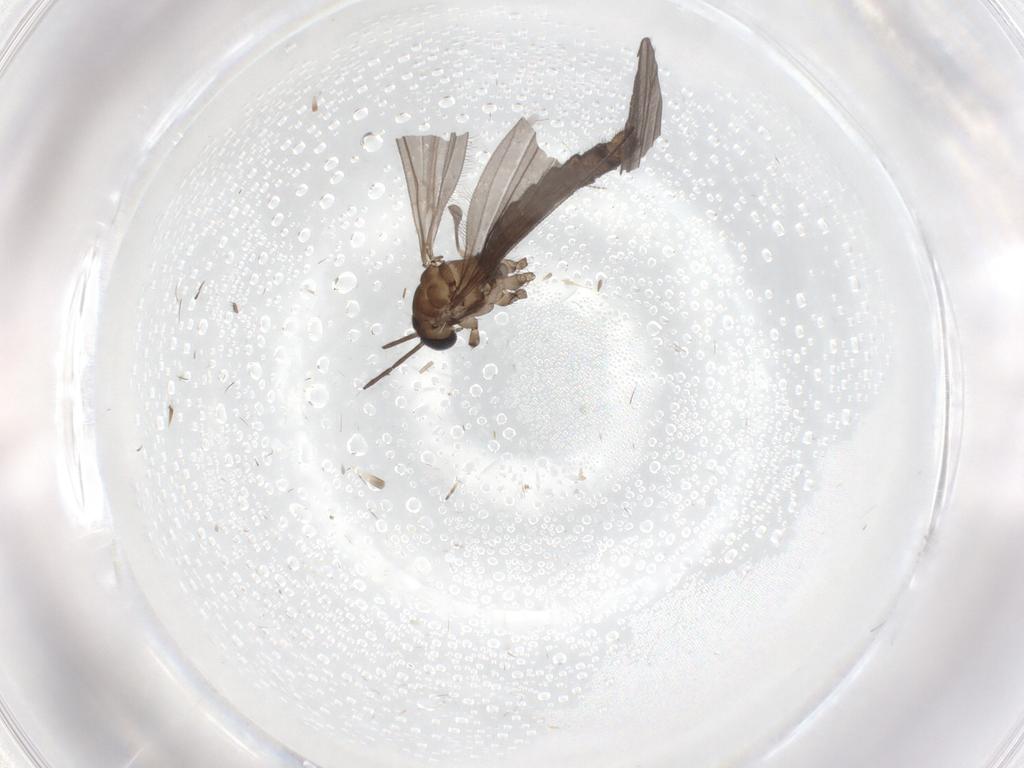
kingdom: Animalia
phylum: Arthropoda
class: Insecta
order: Diptera
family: Limoniidae
